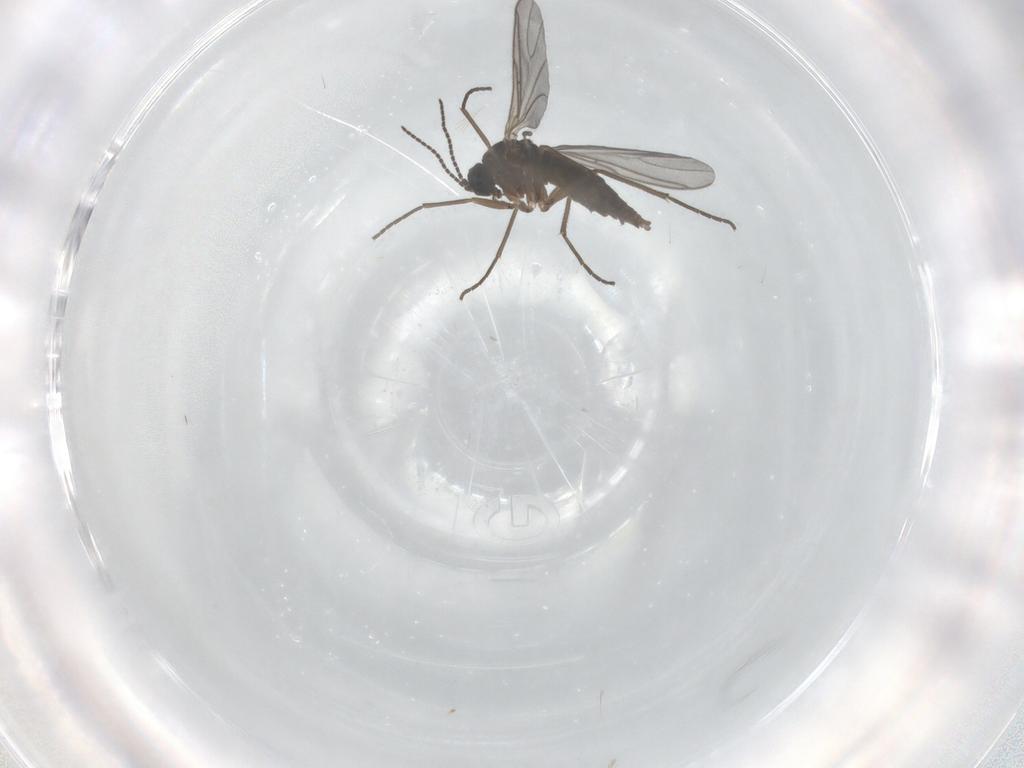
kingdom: Animalia
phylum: Arthropoda
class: Insecta
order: Diptera
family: Sciaridae
